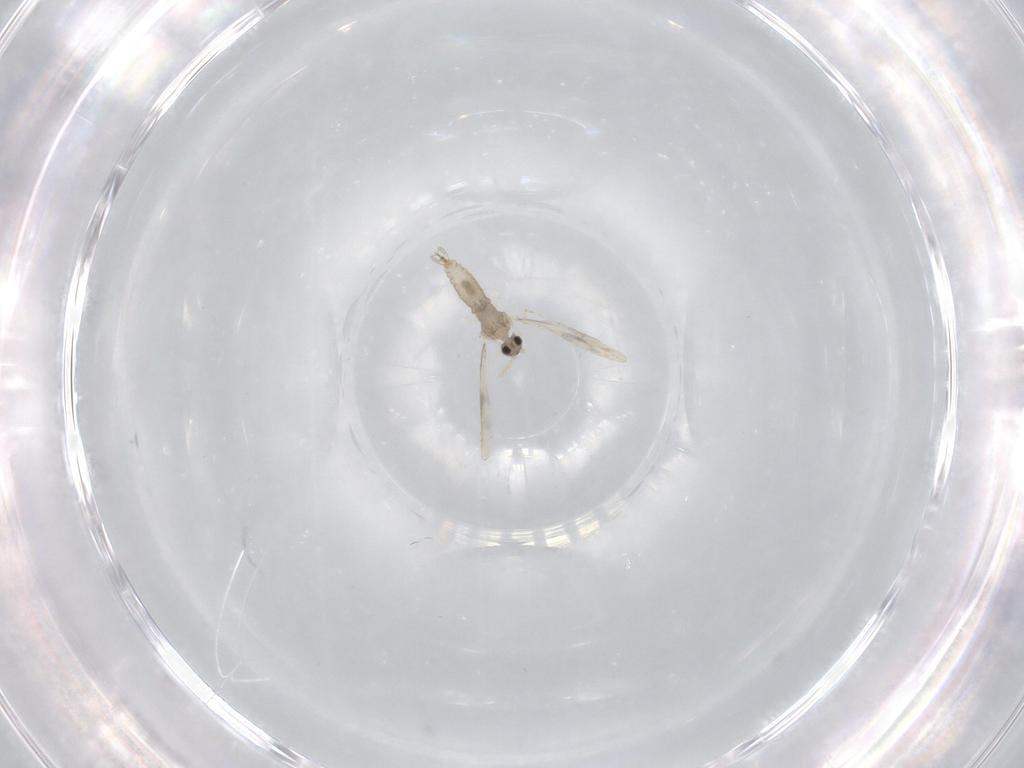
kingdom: Animalia
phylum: Arthropoda
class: Insecta
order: Diptera
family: Cecidomyiidae
